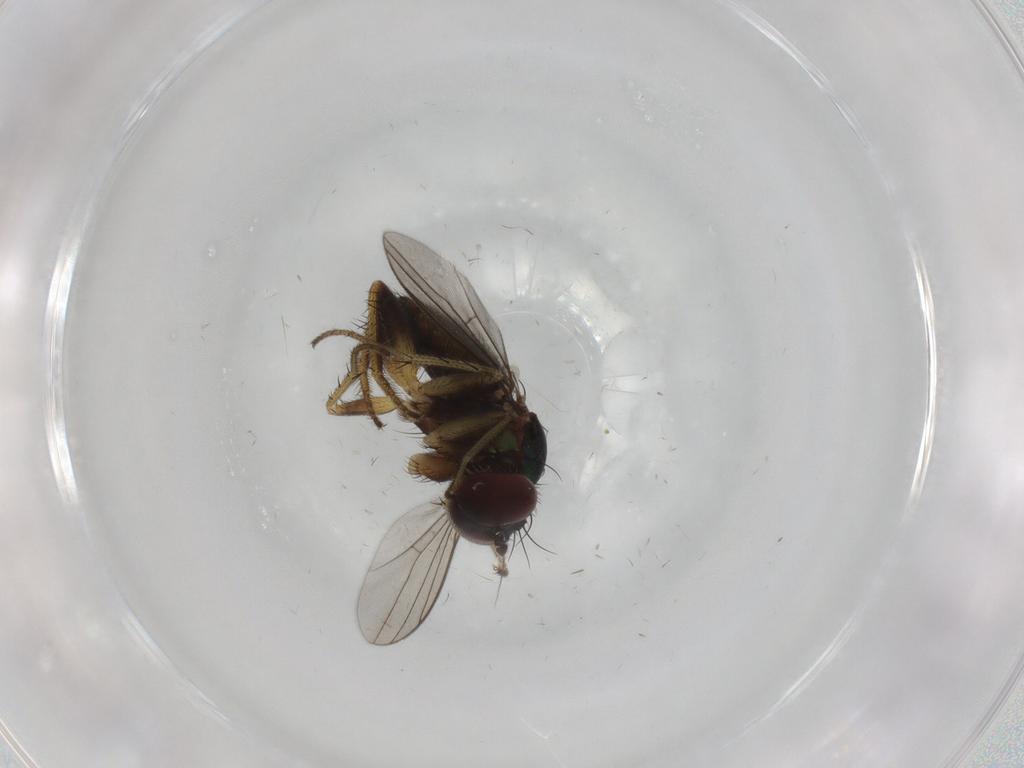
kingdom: Animalia
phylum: Arthropoda
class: Insecta
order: Diptera
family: Dolichopodidae
